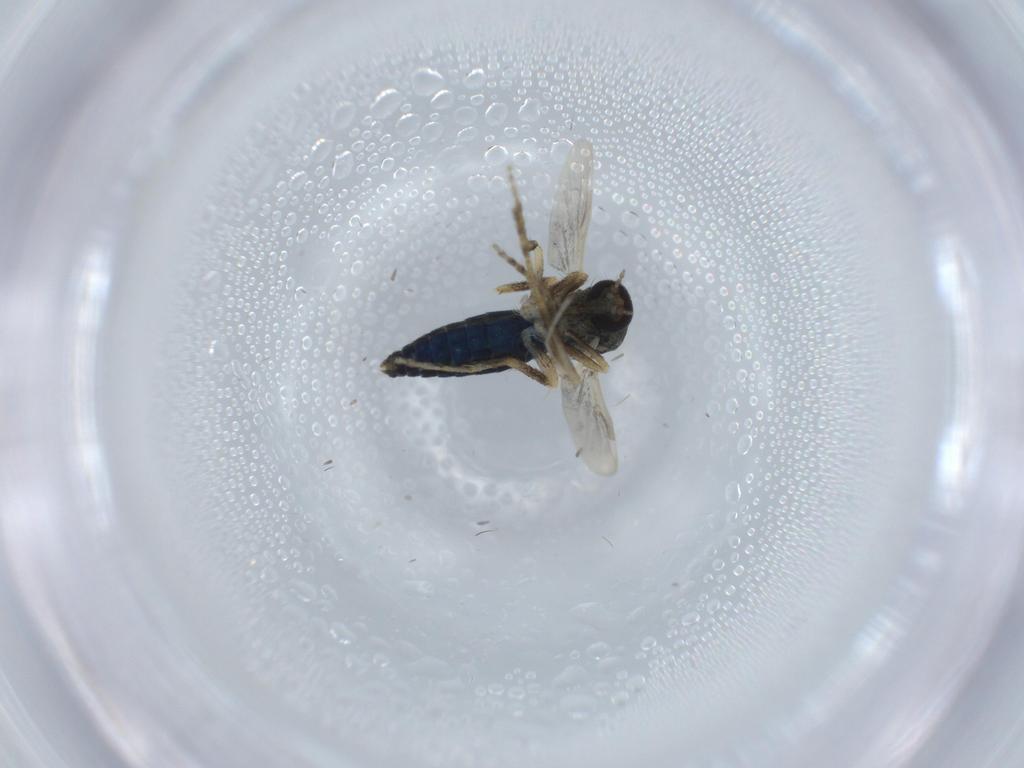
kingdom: Animalia
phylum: Arthropoda
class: Insecta
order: Diptera
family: Ceratopogonidae
